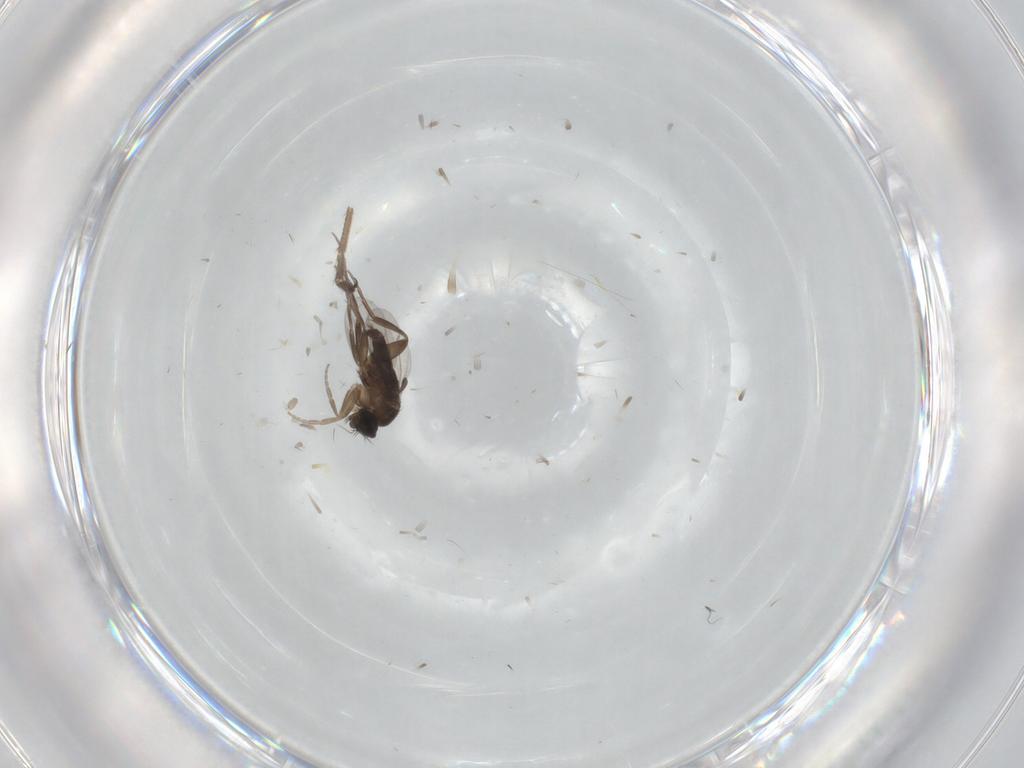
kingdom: Animalia
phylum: Arthropoda
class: Insecta
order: Diptera
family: Phoridae
